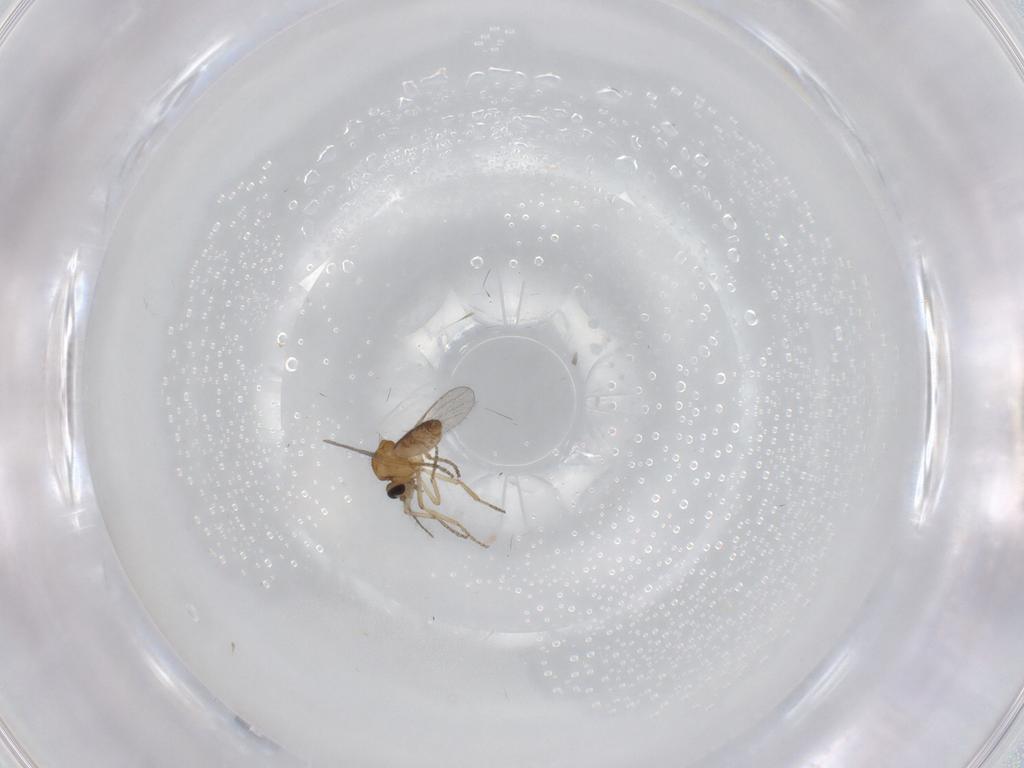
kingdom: Animalia
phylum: Arthropoda
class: Insecta
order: Diptera
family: Ceratopogonidae
